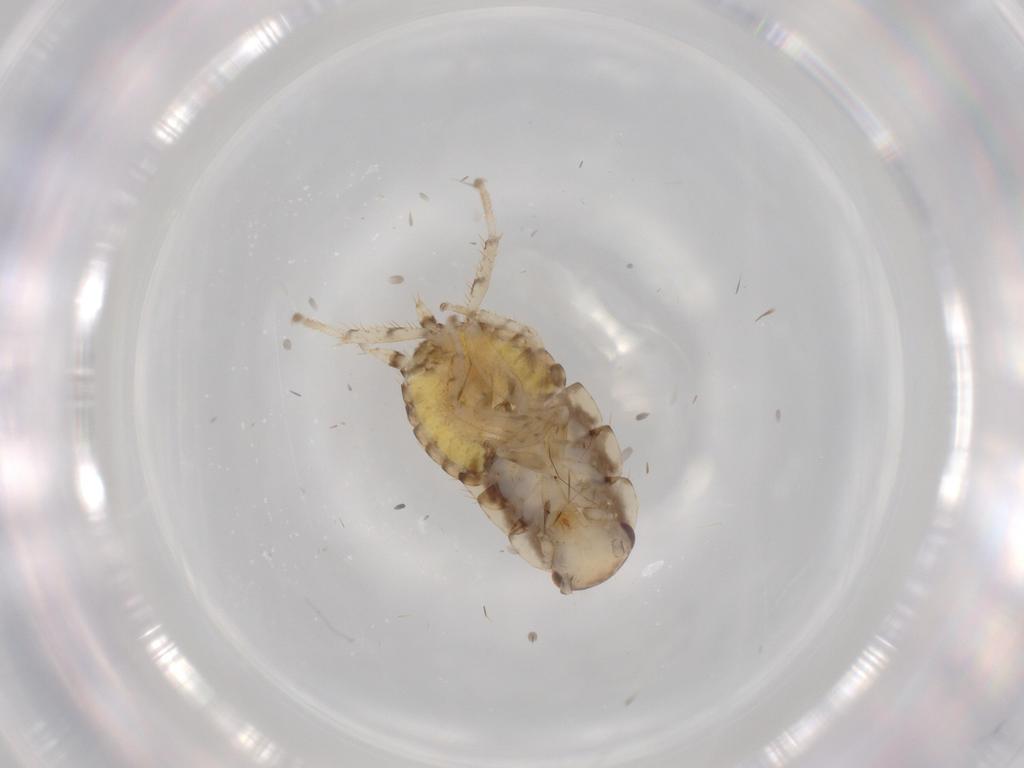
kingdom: Animalia
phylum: Arthropoda
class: Insecta
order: Blattodea
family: Ectobiidae
